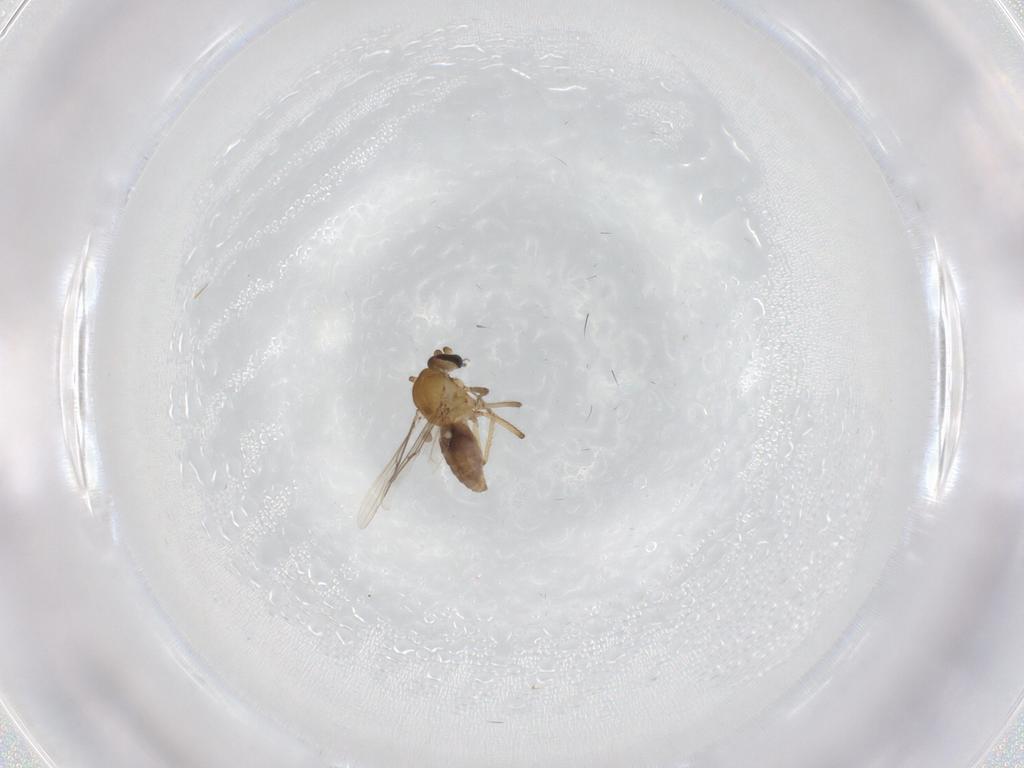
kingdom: Animalia
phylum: Arthropoda
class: Insecta
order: Diptera
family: Ceratopogonidae
